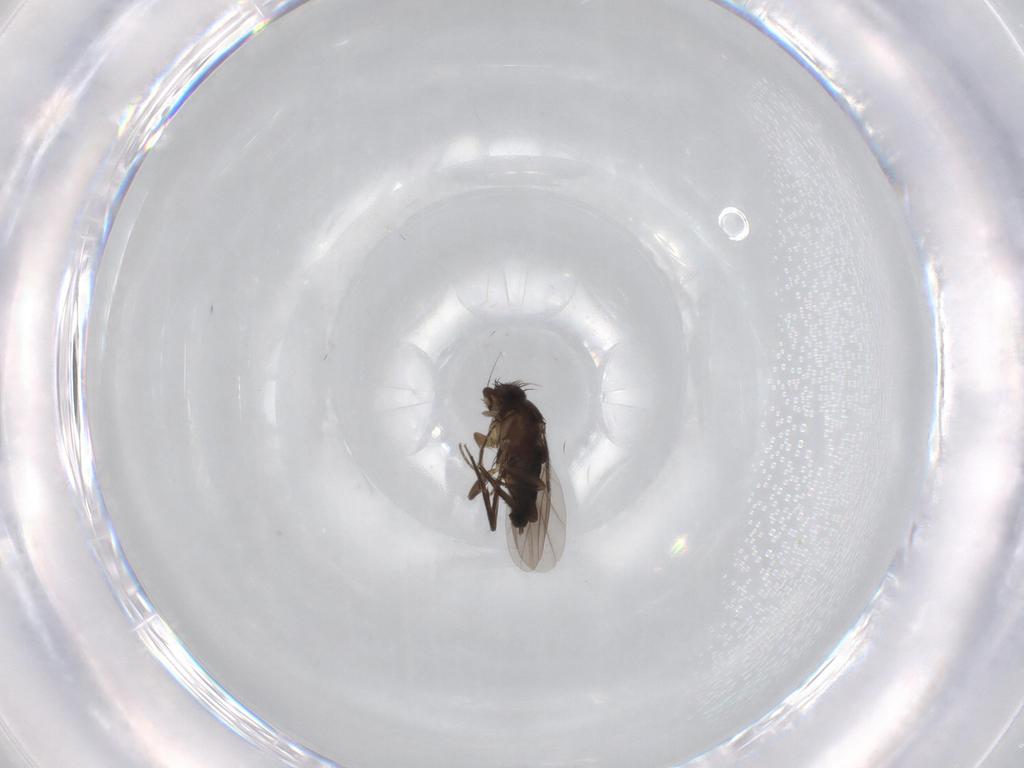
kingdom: Animalia
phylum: Arthropoda
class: Insecta
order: Diptera
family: Phoridae
